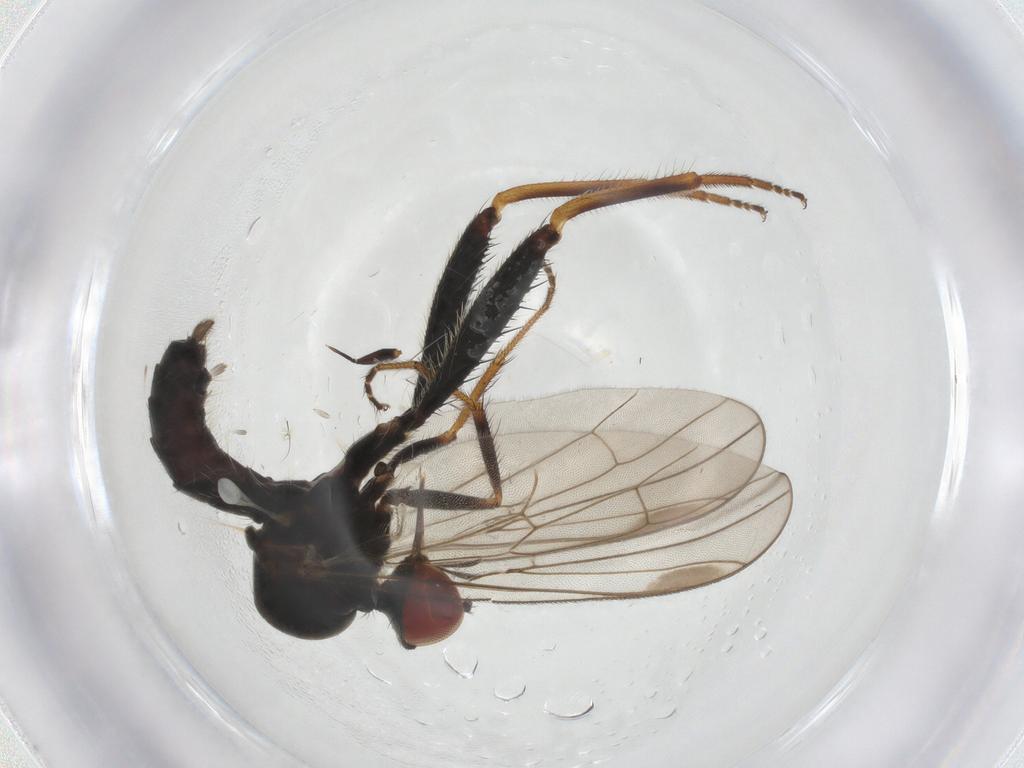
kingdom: Animalia
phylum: Arthropoda
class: Insecta
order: Diptera
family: Asilidae
